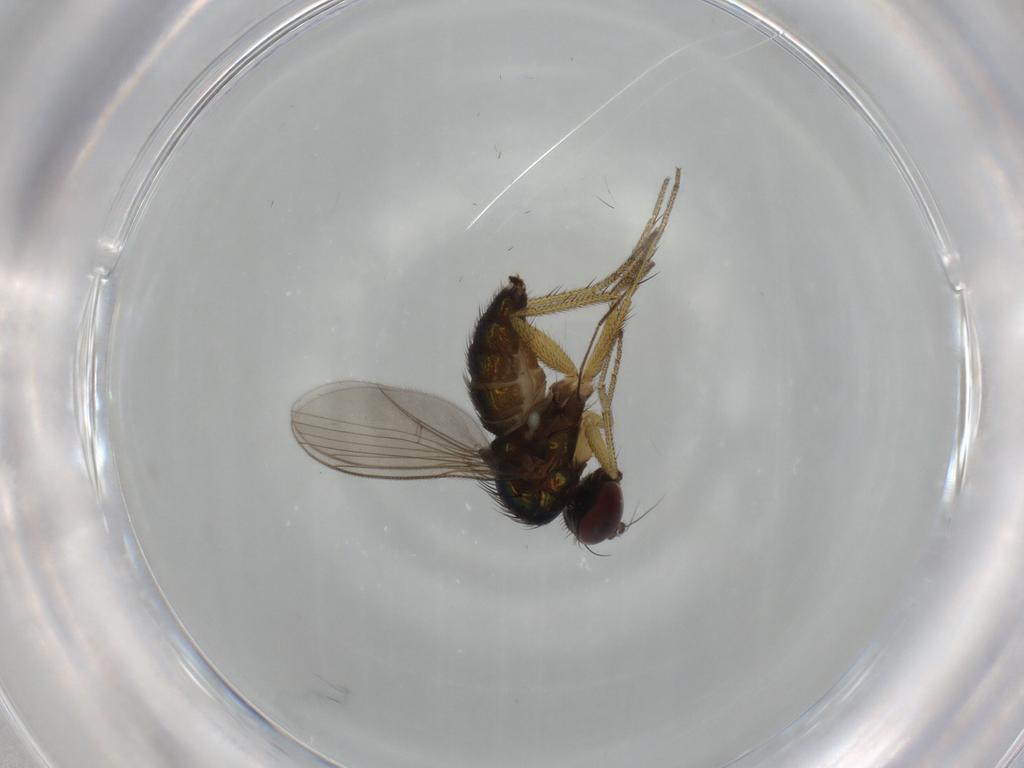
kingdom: Animalia
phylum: Arthropoda
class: Insecta
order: Diptera
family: Dolichopodidae
